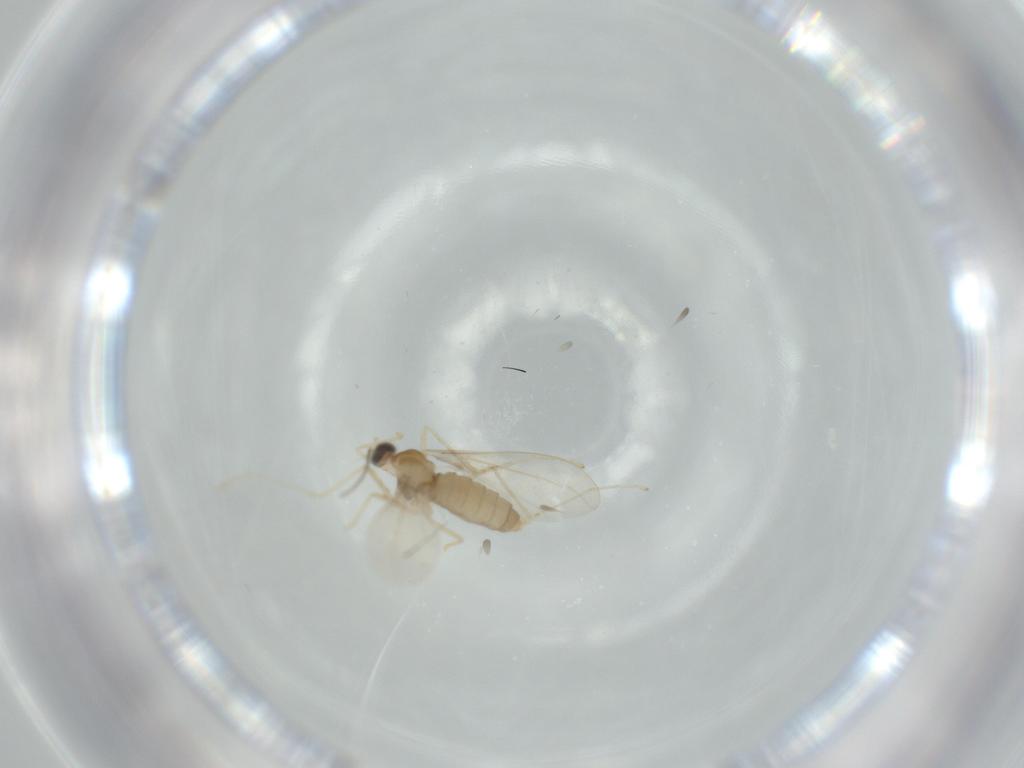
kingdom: Animalia
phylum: Arthropoda
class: Insecta
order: Diptera
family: Cecidomyiidae
